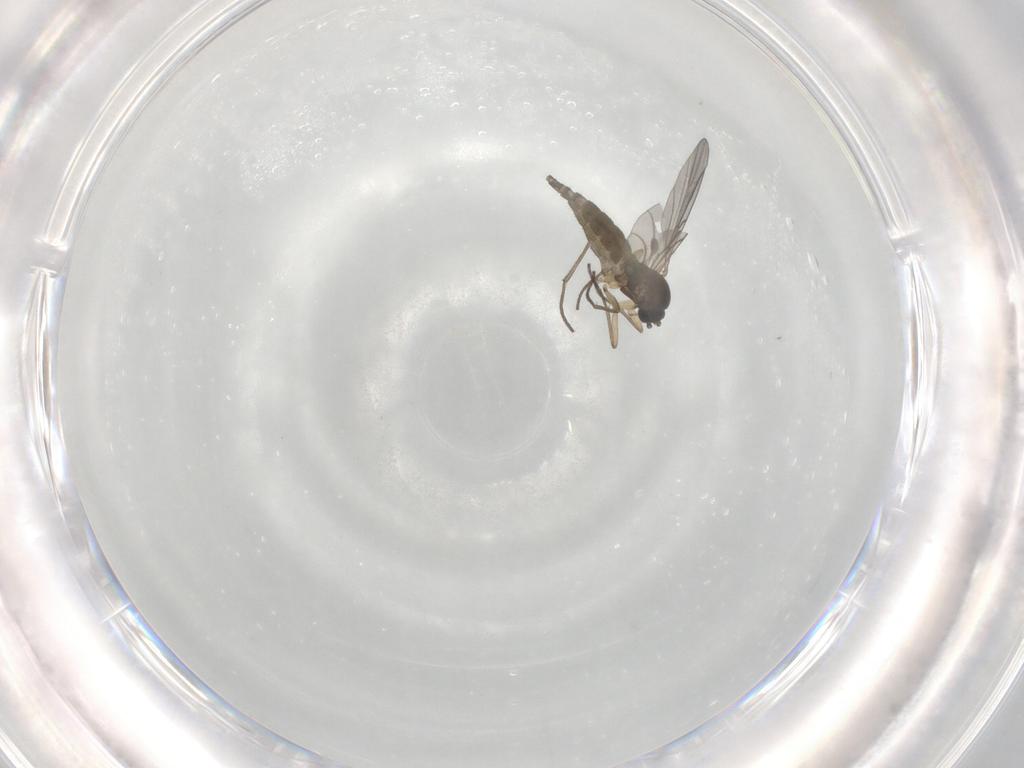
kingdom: Animalia
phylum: Arthropoda
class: Insecta
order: Diptera
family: Sciaridae
